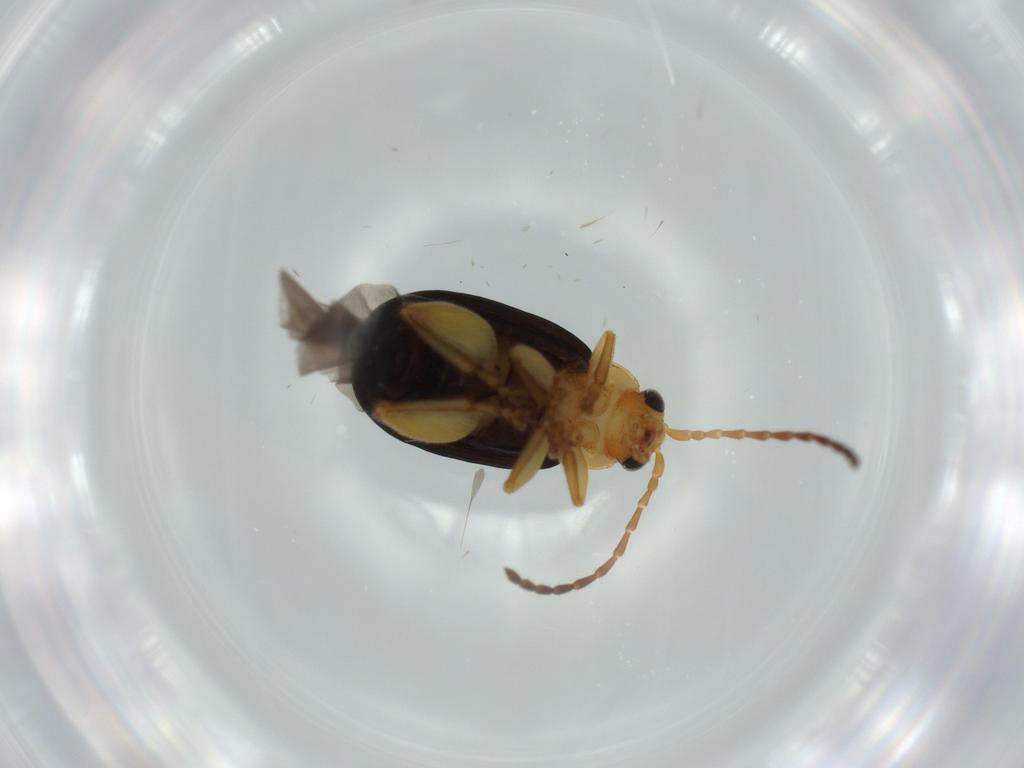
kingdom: Animalia
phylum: Arthropoda
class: Insecta
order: Coleoptera
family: Chrysomelidae
